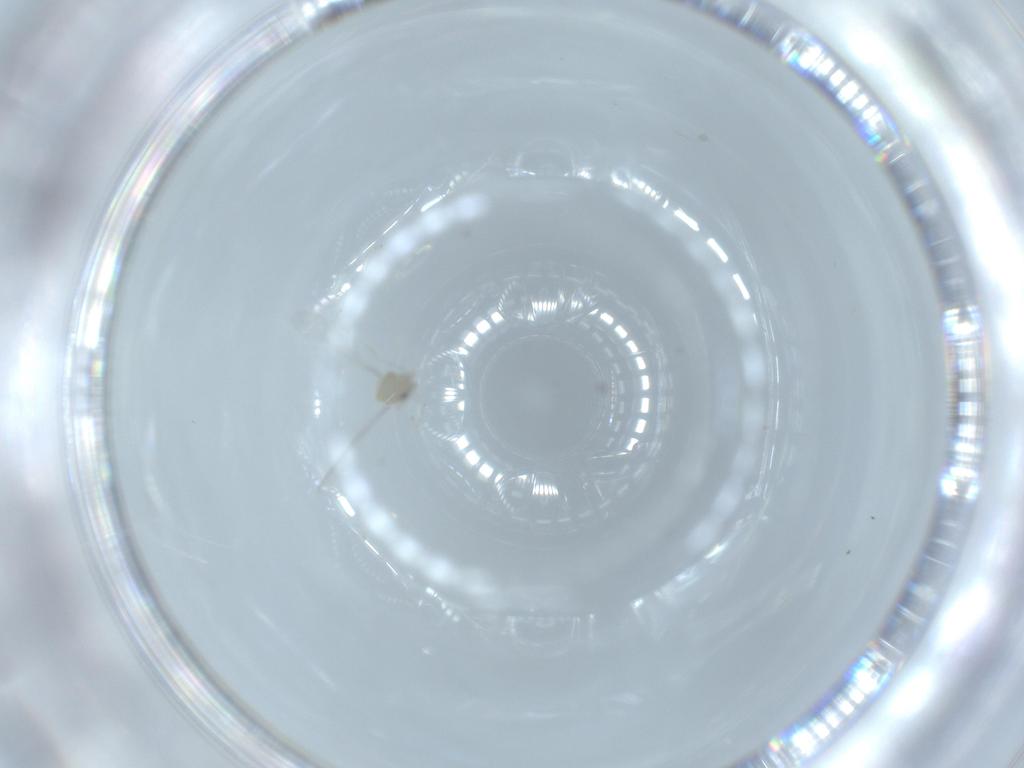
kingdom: Animalia
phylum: Arthropoda
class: Insecta
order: Diptera
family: Cecidomyiidae
